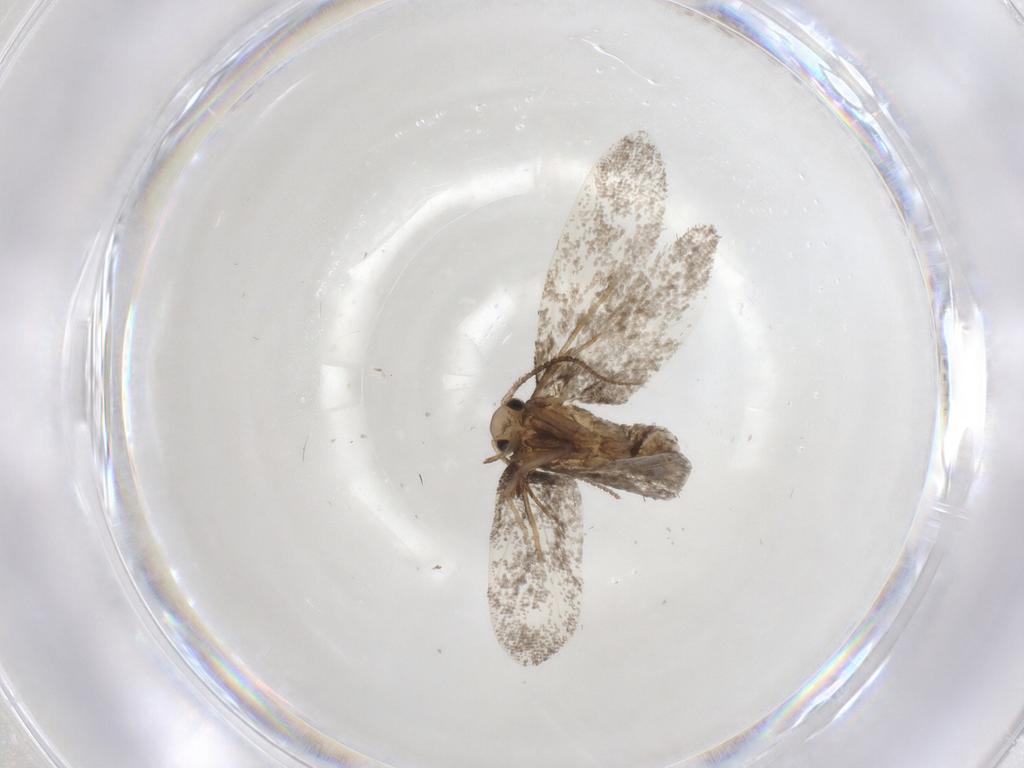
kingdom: Animalia
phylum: Arthropoda
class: Insecta
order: Lepidoptera
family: Psychidae
